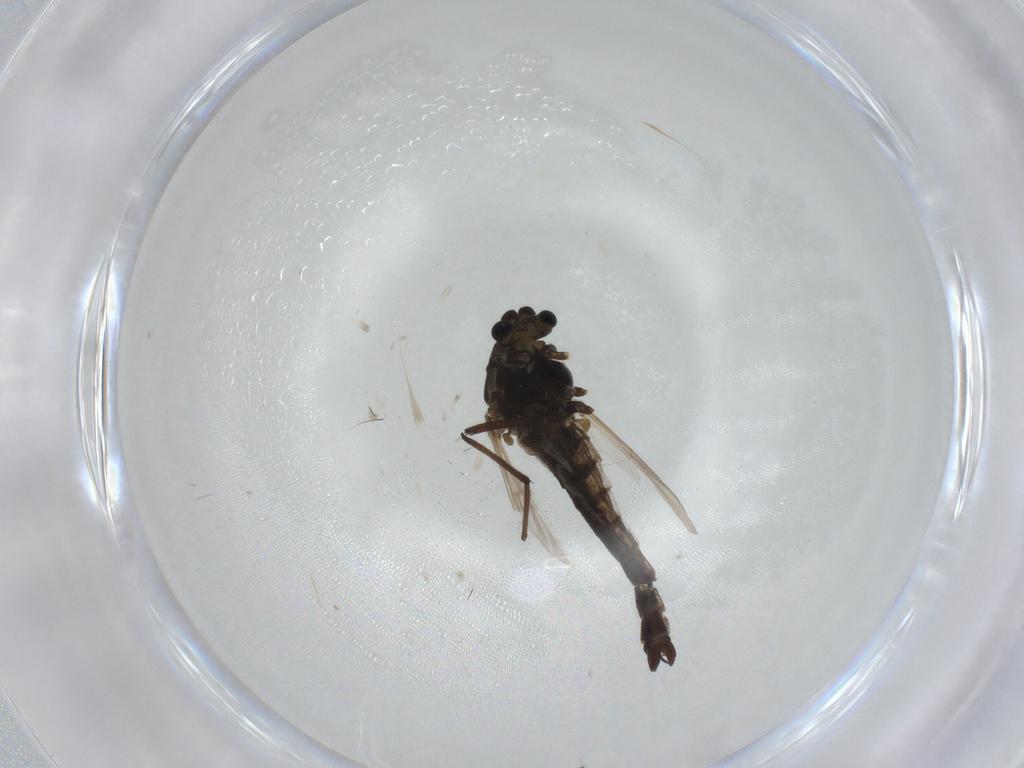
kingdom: Animalia
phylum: Arthropoda
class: Insecta
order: Diptera
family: Chironomidae
